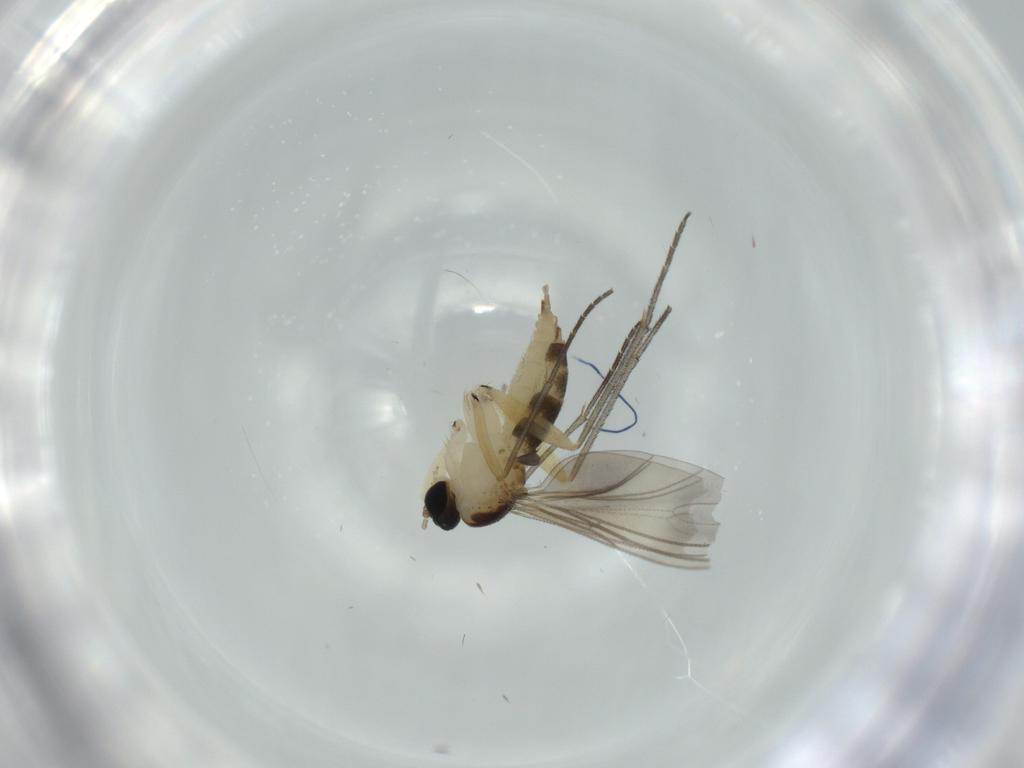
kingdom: Animalia
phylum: Arthropoda
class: Insecta
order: Diptera
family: Sciaridae
